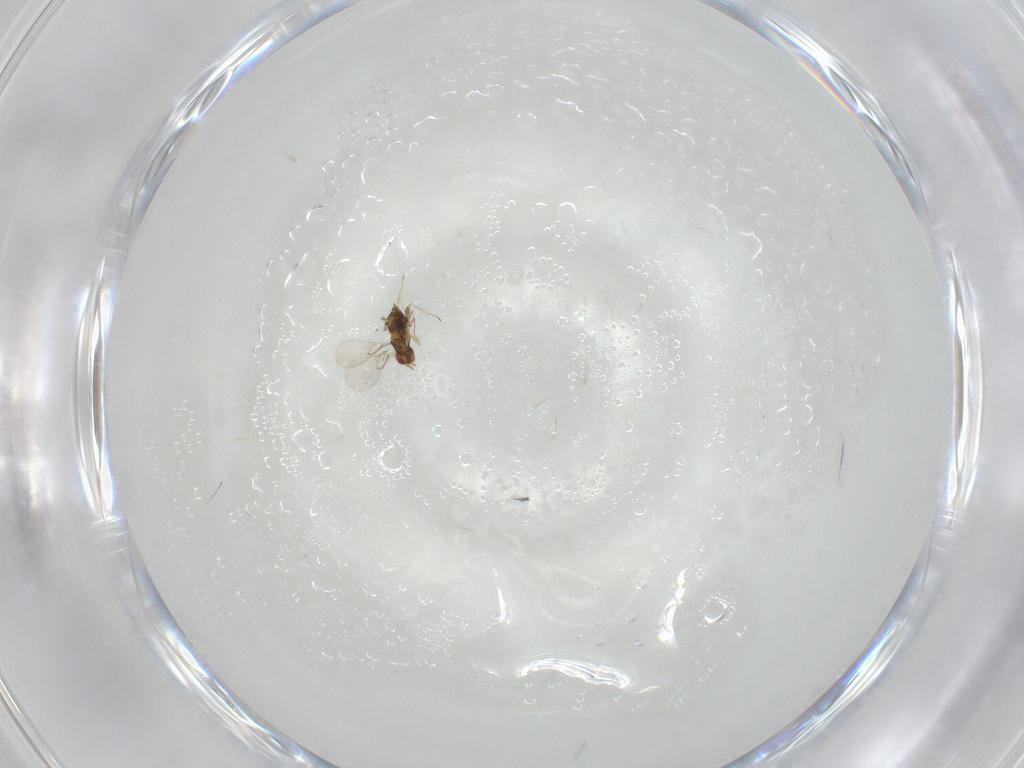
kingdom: Animalia
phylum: Arthropoda
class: Insecta
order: Hymenoptera
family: Trichogrammatidae
